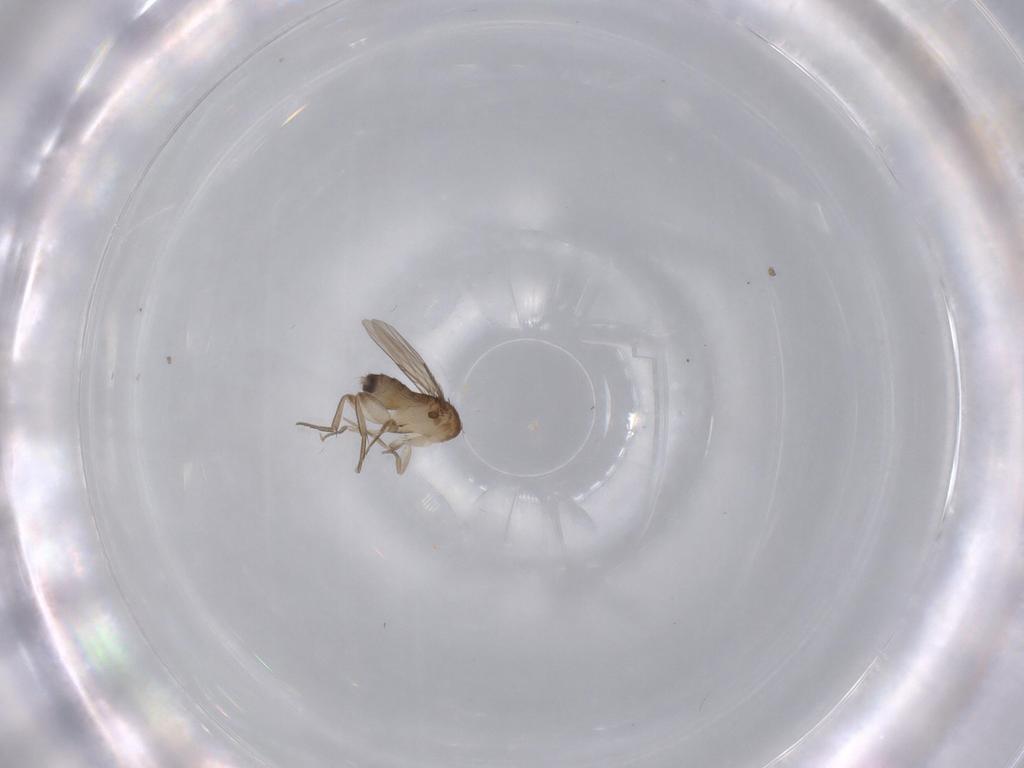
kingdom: Animalia
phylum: Arthropoda
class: Insecta
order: Diptera
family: Phoridae
